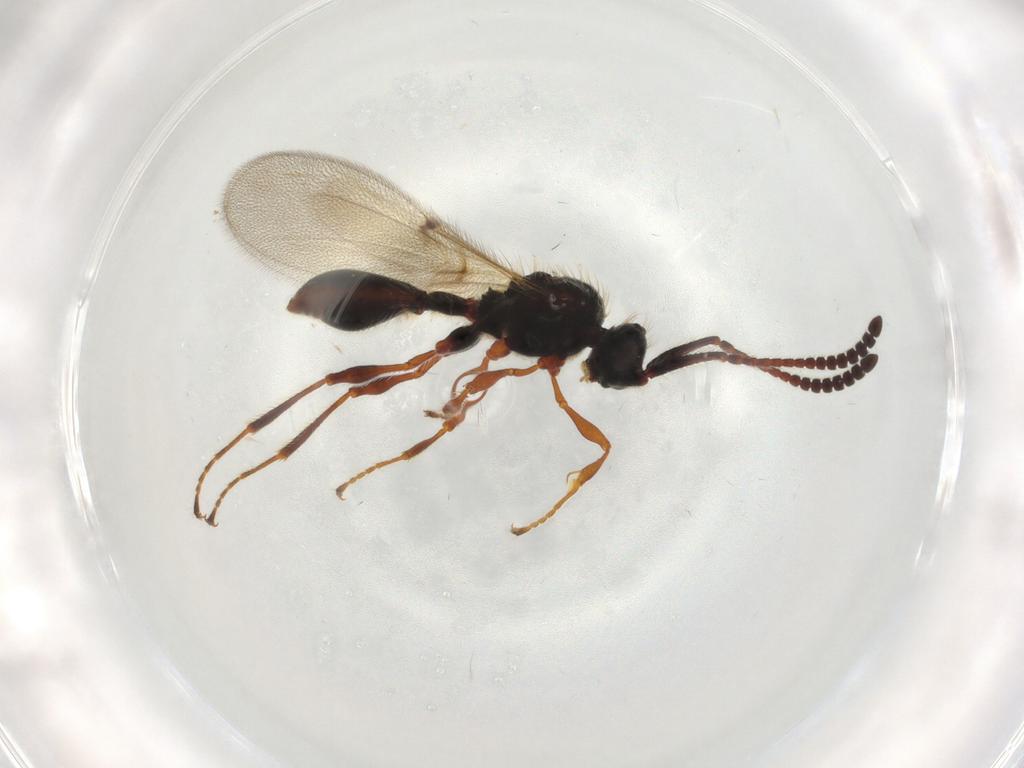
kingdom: Animalia
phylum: Arthropoda
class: Insecta
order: Hymenoptera
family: Diapriidae
